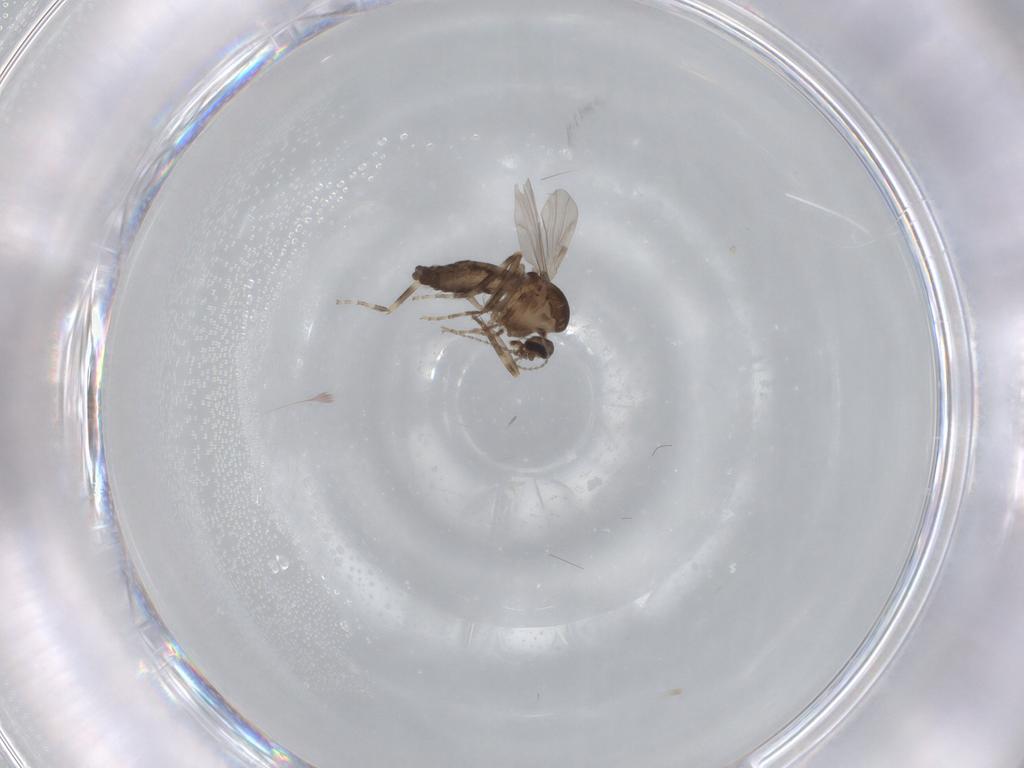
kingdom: Animalia
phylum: Arthropoda
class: Insecta
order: Diptera
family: Ceratopogonidae
